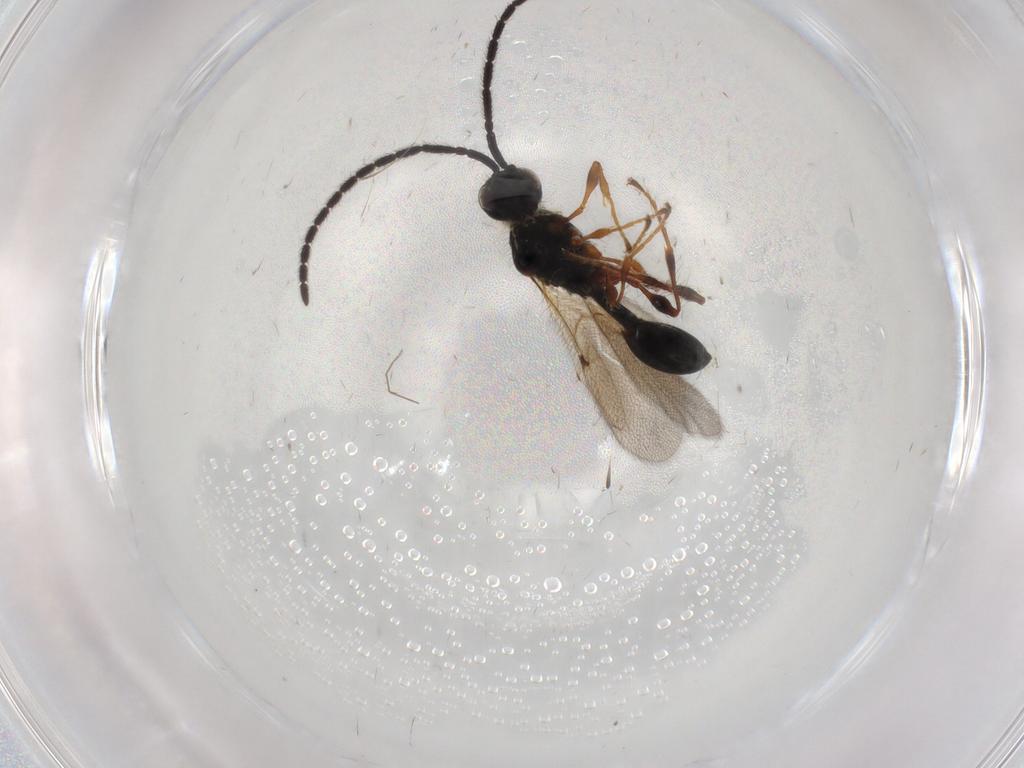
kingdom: Animalia
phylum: Arthropoda
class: Insecta
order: Hymenoptera
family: Diapriidae
